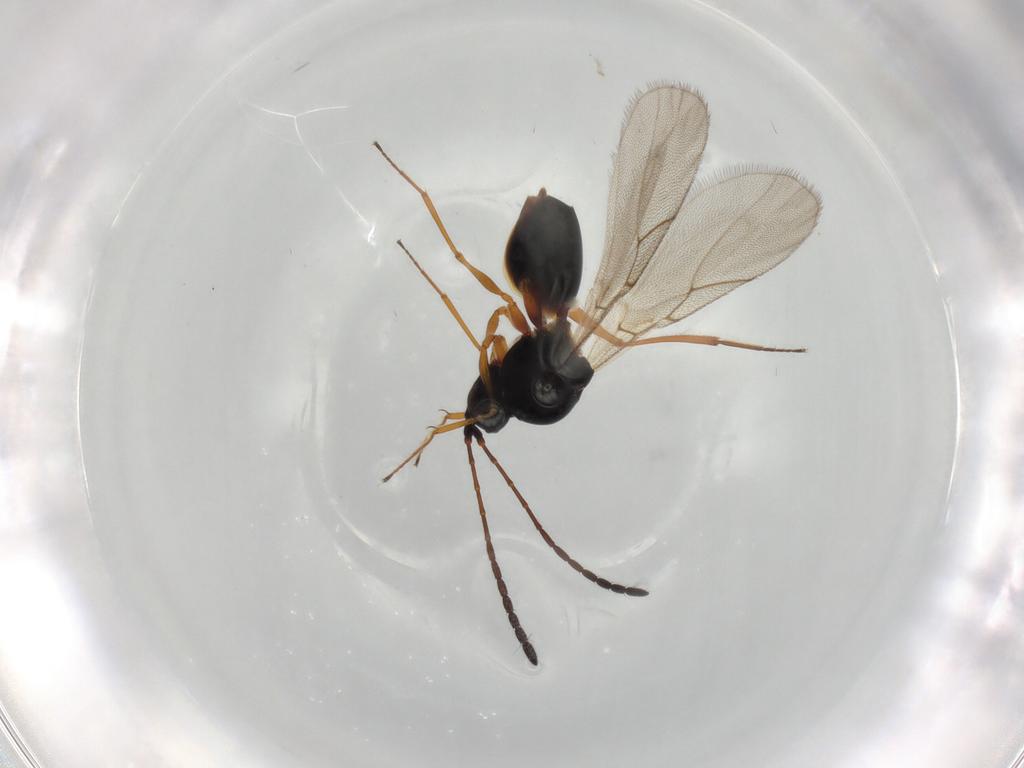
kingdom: Animalia
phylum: Arthropoda
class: Insecta
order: Hymenoptera
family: Figitidae
